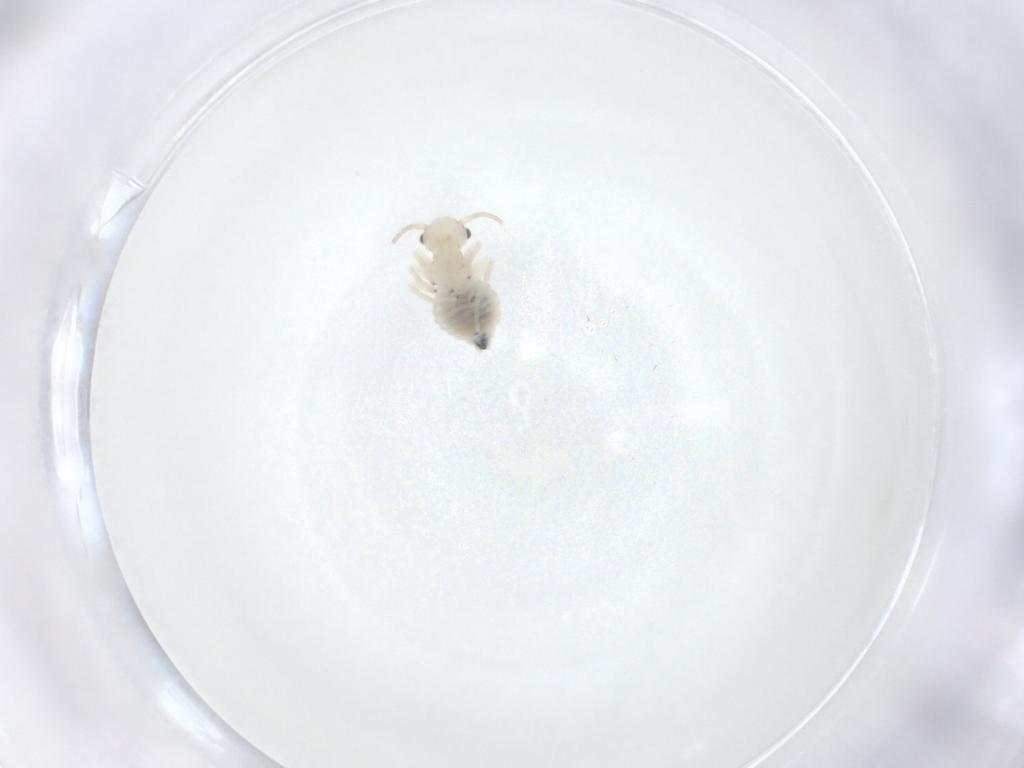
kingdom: Animalia
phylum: Arthropoda
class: Insecta
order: Psocodea
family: Amphipsocidae
